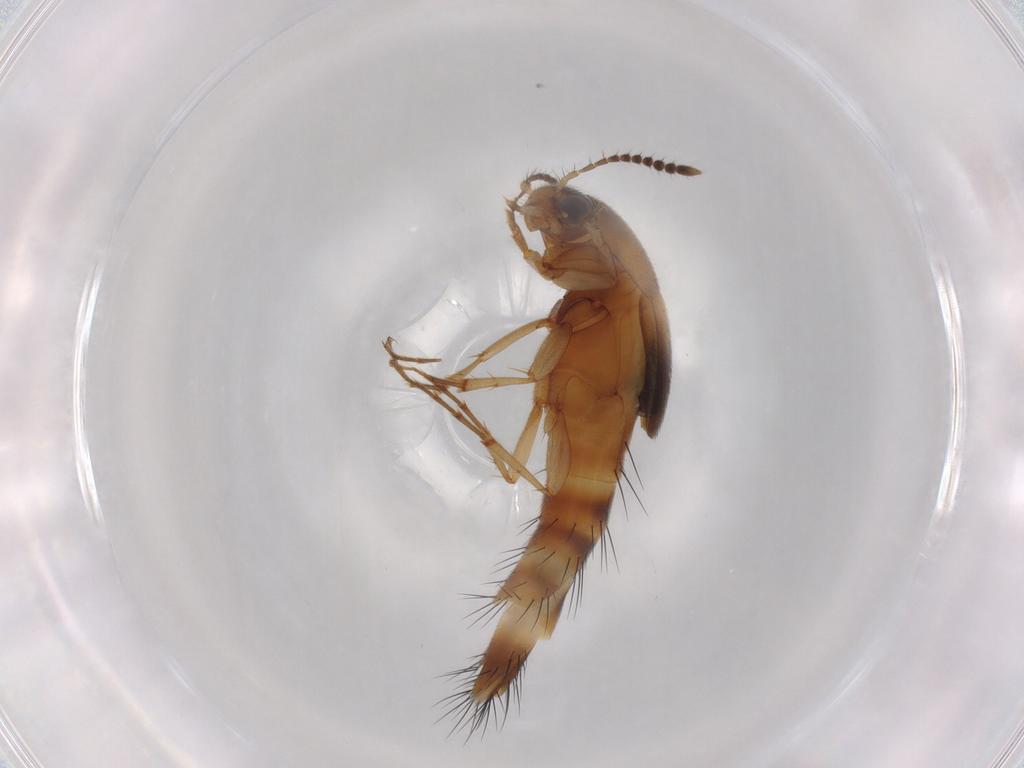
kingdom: Animalia
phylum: Arthropoda
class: Insecta
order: Coleoptera
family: Staphylinidae
